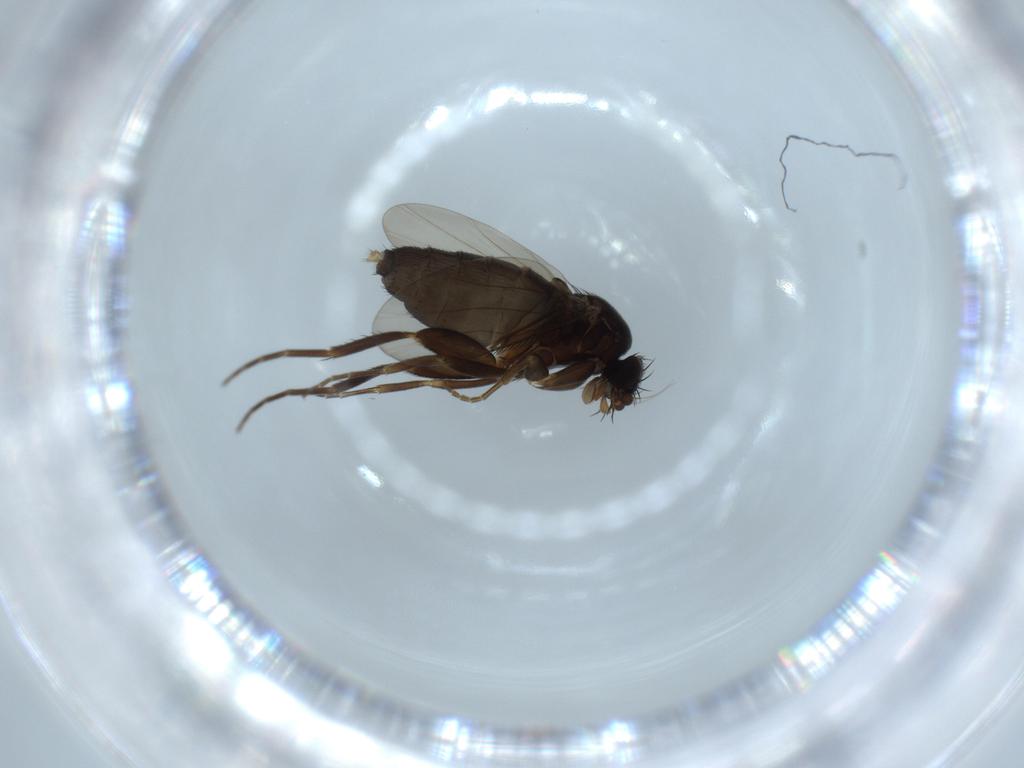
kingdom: Animalia
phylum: Arthropoda
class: Insecta
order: Diptera
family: Phoridae
